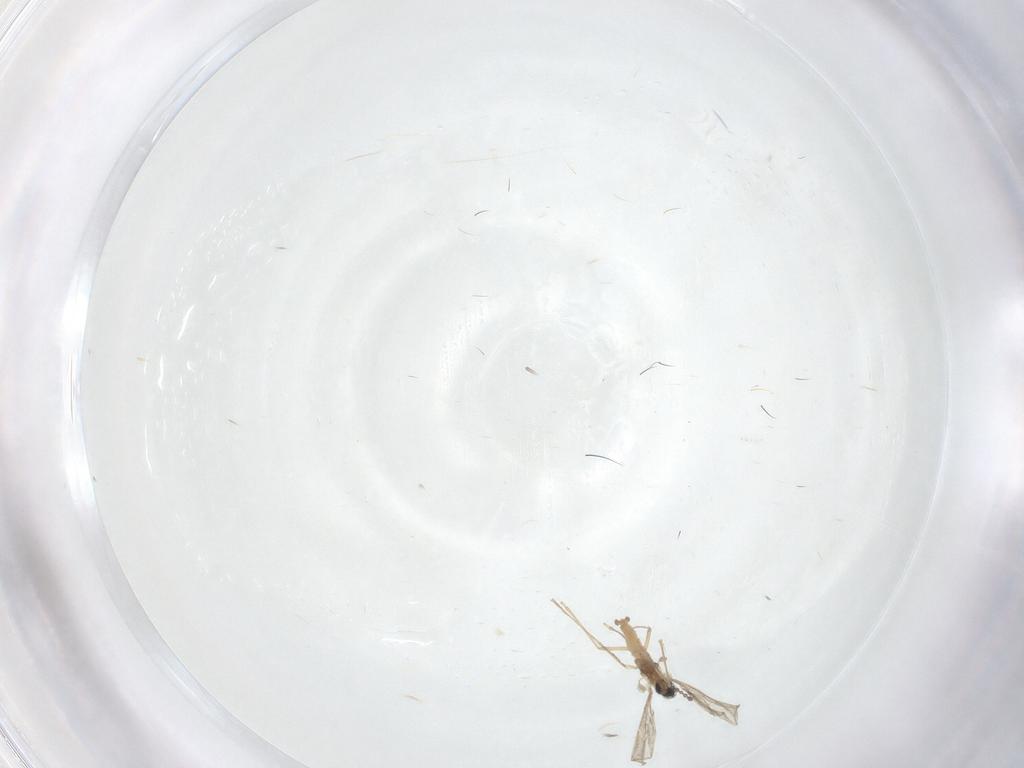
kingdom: Animalia
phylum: Arthropoda
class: Insecta
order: Diptera
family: Cecidomyiidae
